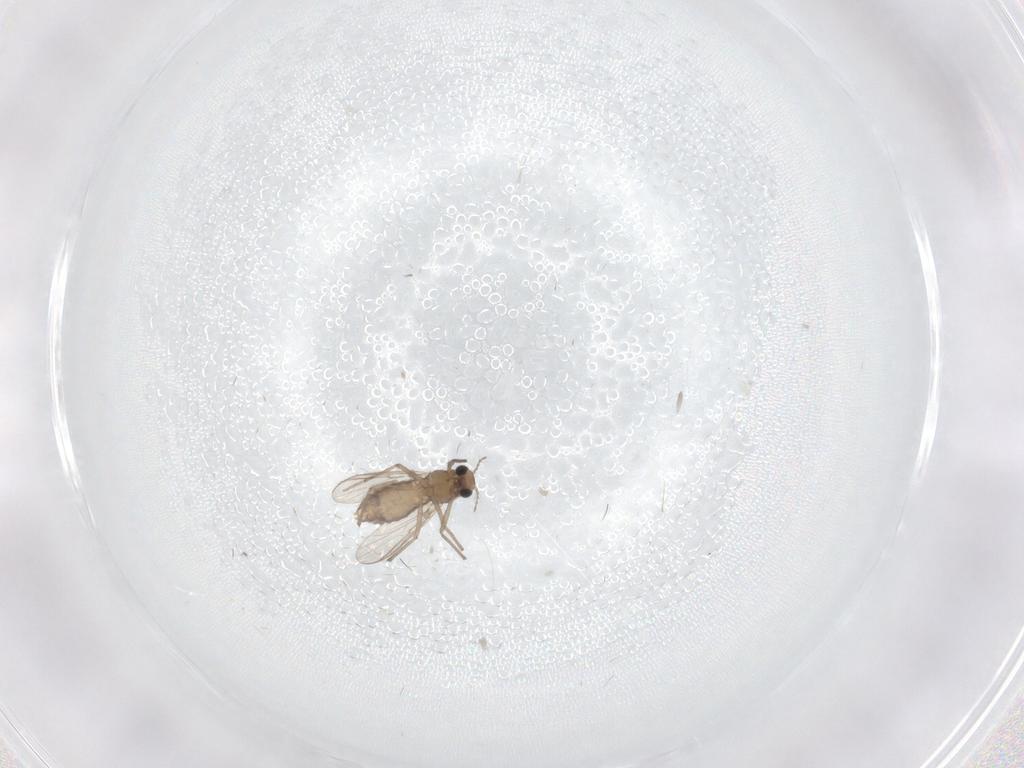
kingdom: Animalia
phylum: Arthropoda
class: Insecta
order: Diptera
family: Chironomidae
